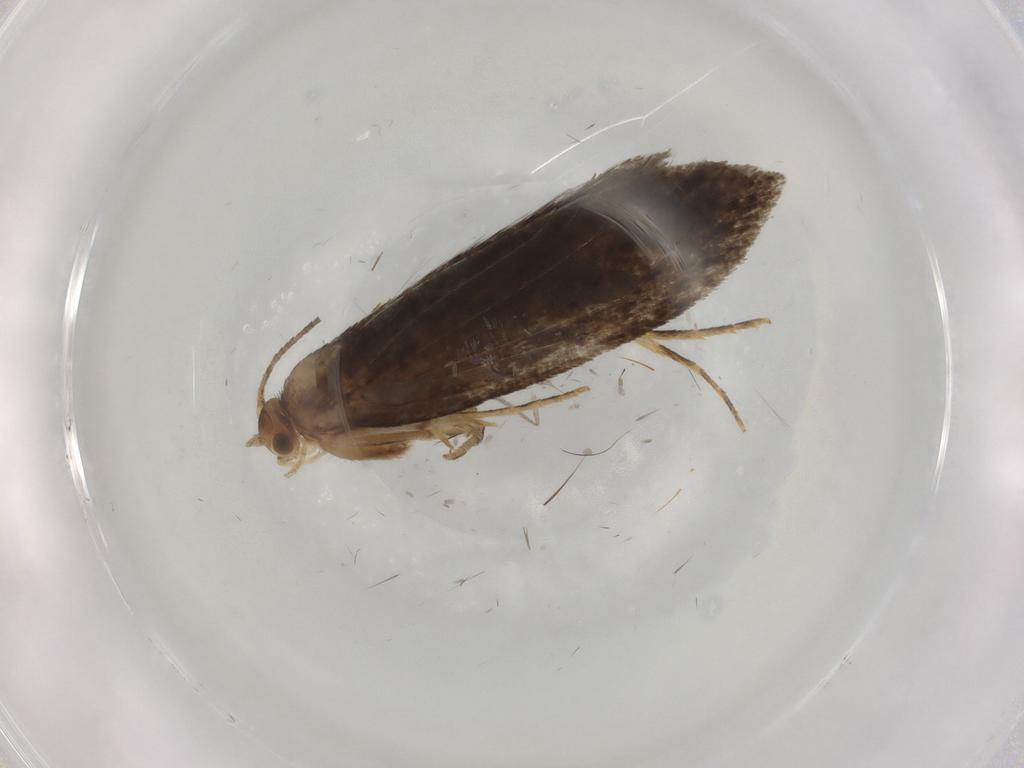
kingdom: Animalia
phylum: Arthropoda
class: Insecta
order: Lepidoptera
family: Tineidae
